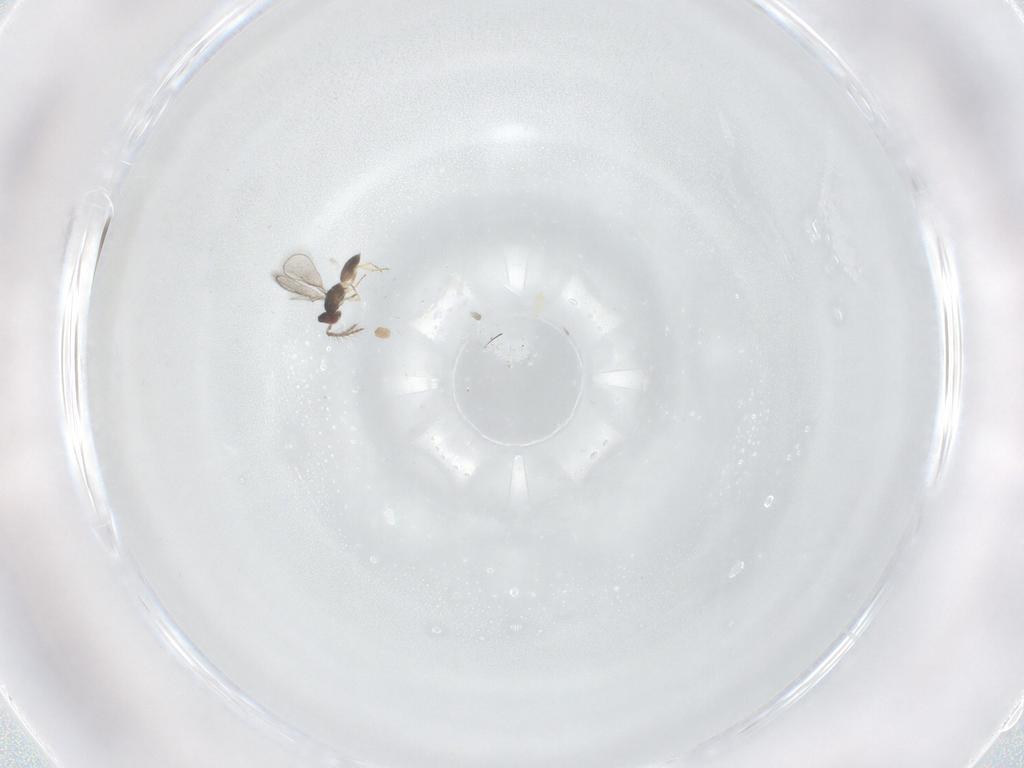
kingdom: Animalia
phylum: Arthropoda
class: Insecta
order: Hymenoptera
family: Eulophidae
